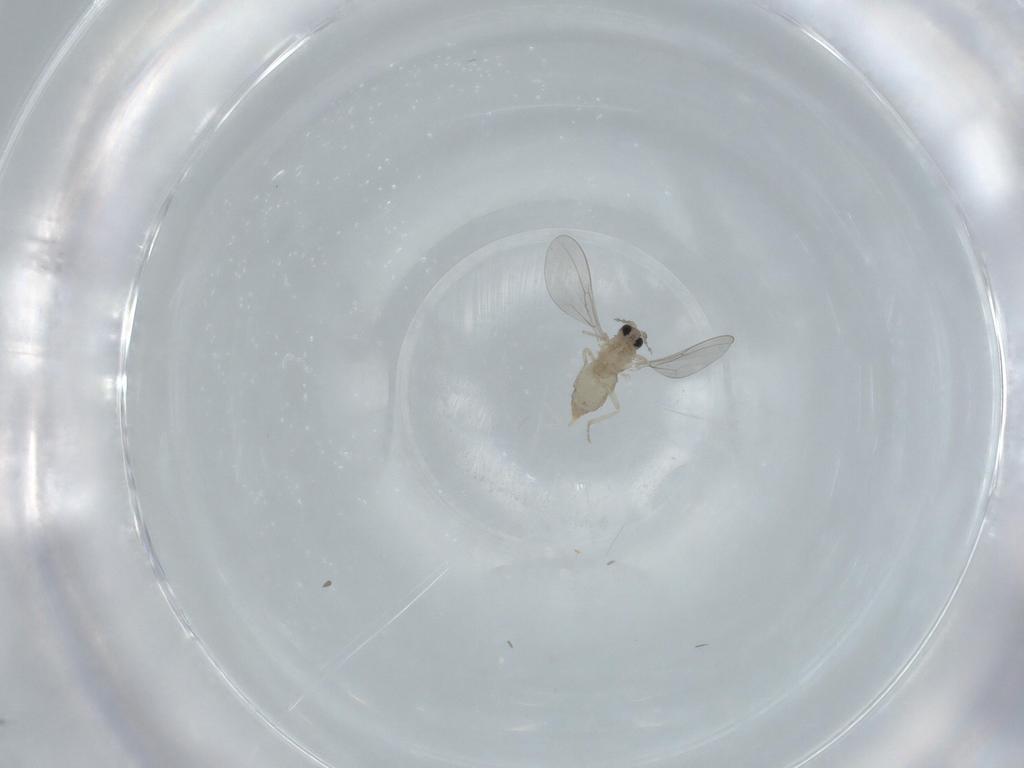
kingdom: Animalia
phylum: Arthropoda
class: Insecta
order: Diptera
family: Cecidomyiidae
